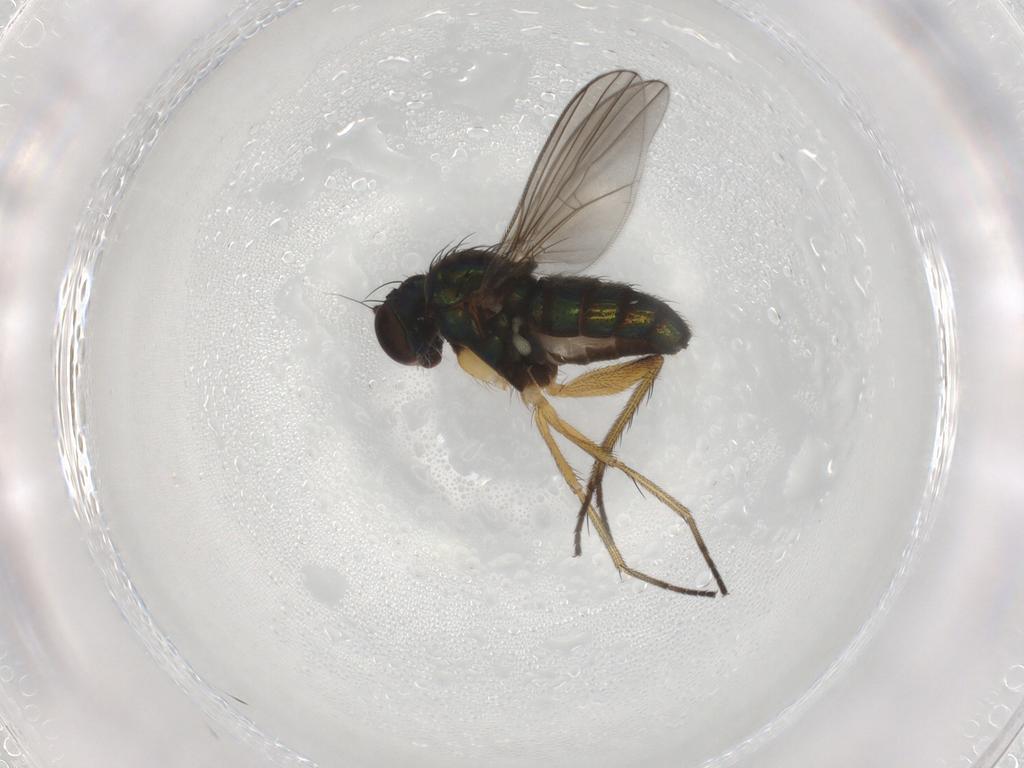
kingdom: Animalia
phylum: Arthropoda
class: Insecta
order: Diptera
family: Dolichopodidae
